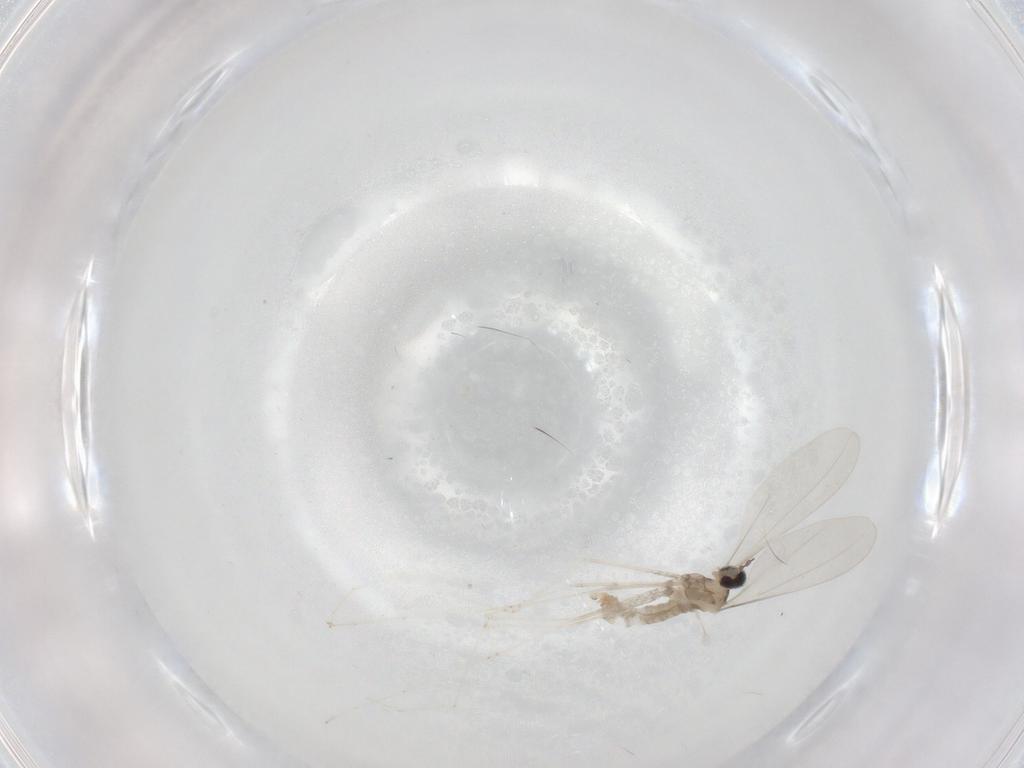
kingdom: Animalia
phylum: Arthropoda
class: Insecta
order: Diptera
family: Cecidomyiidae
